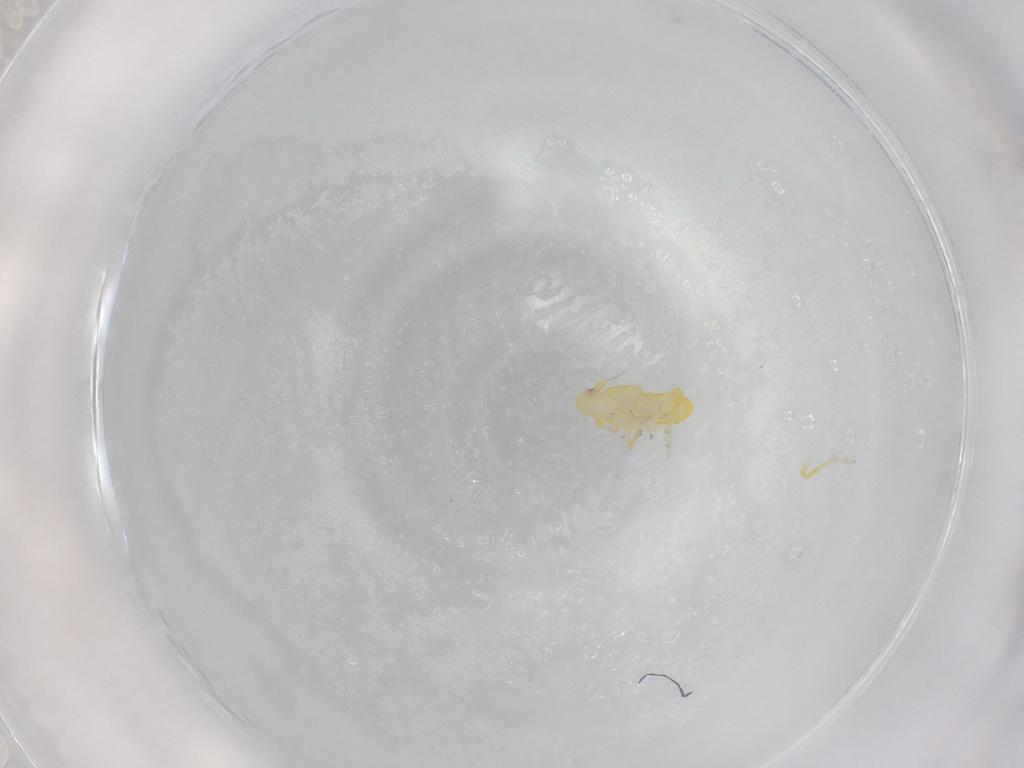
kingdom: Animalia
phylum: Arthropoda
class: Insecta
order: Hemiptera
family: Delphacidae
